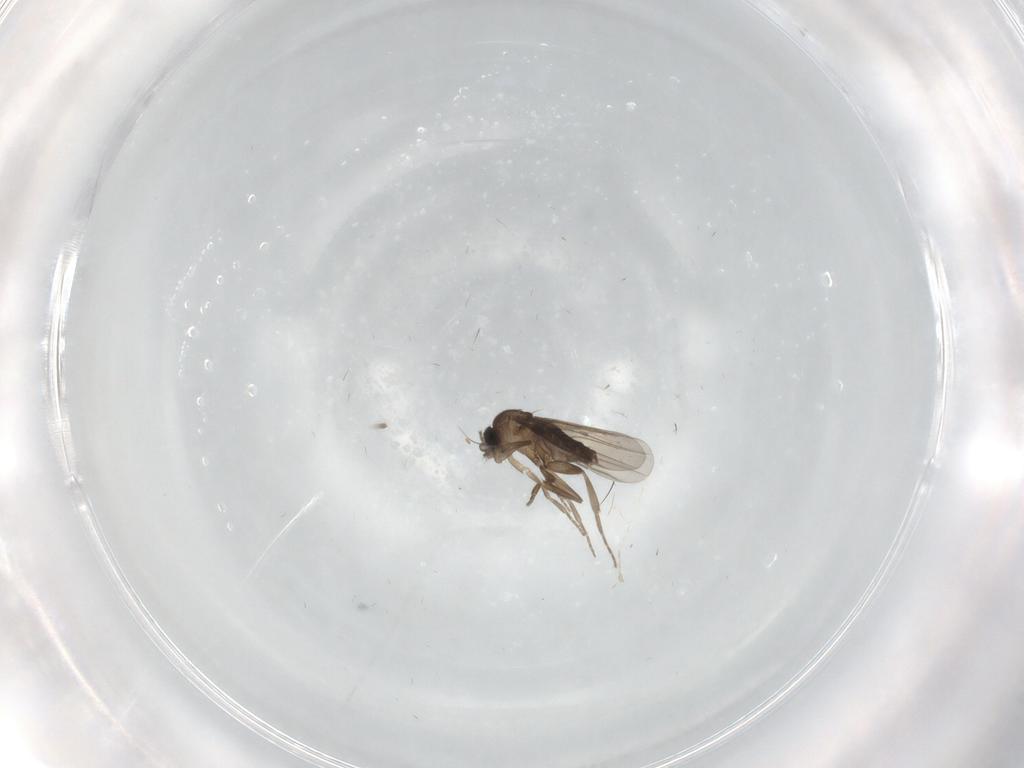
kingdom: Animalia
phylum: Arthropoda
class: Insecta
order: Diptera
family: Phoridae
